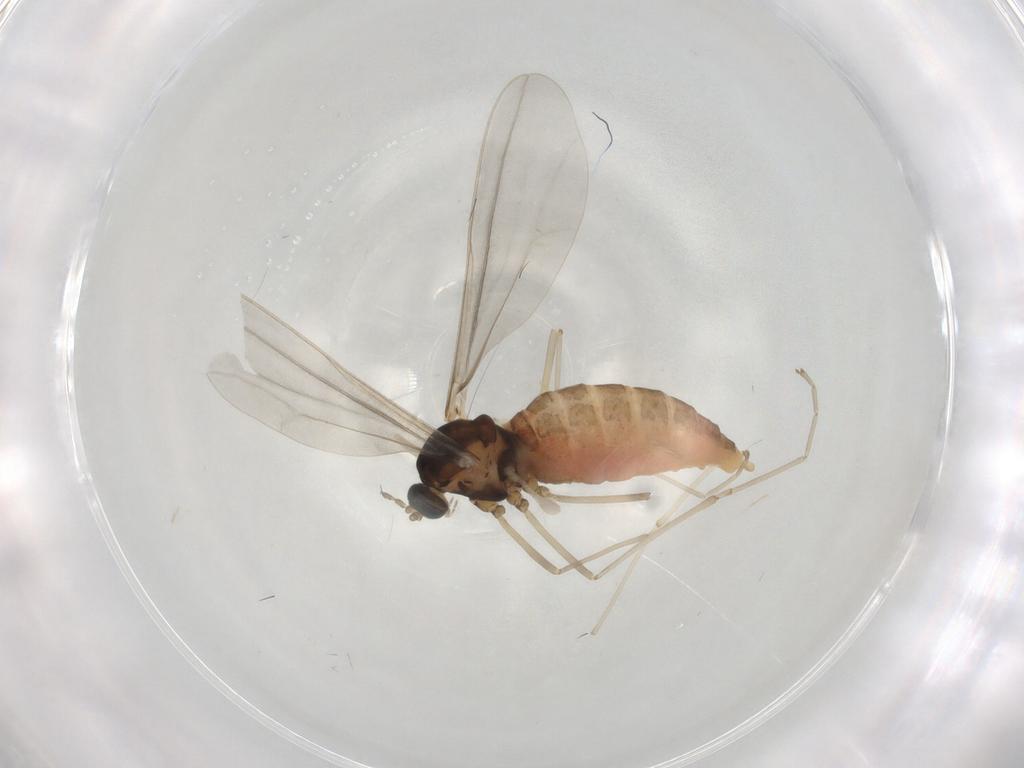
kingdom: Animalia
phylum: Arthropoda
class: Insecta
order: Diptera
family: Cecidomyiidae
